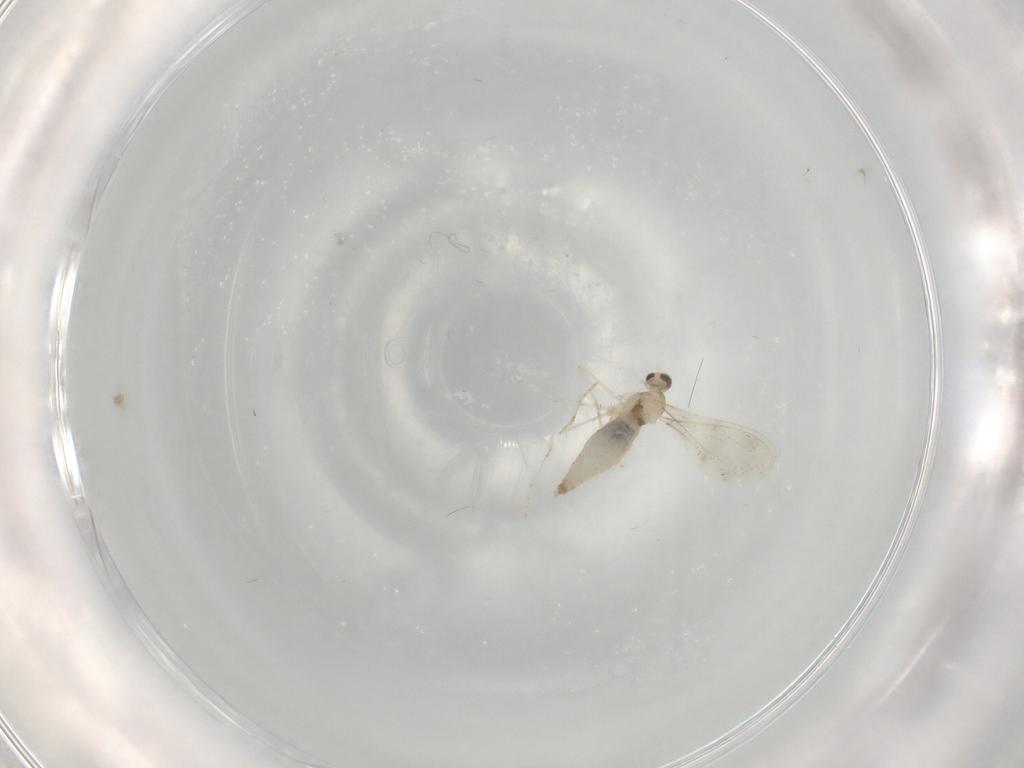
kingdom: Animalia
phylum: Arthropoda
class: Insecta
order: Diptera
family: Cecidomyiidae
